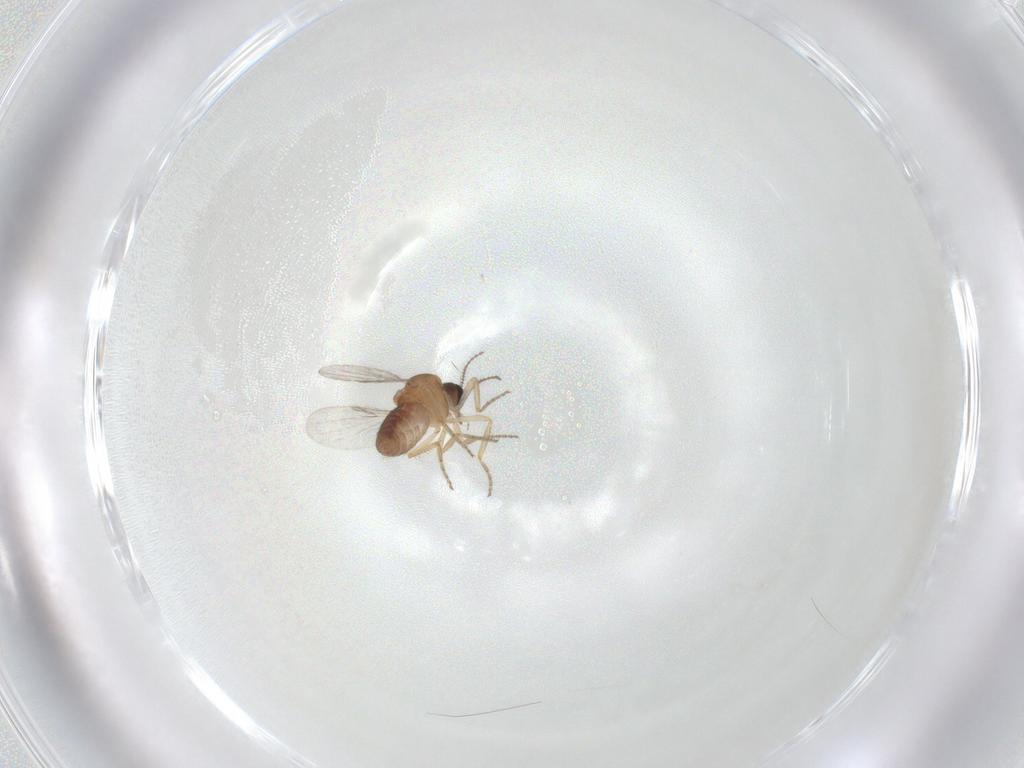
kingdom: Animalia
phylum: Arthropoda
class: Insecta
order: Diptera
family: Ceratopogonidae
